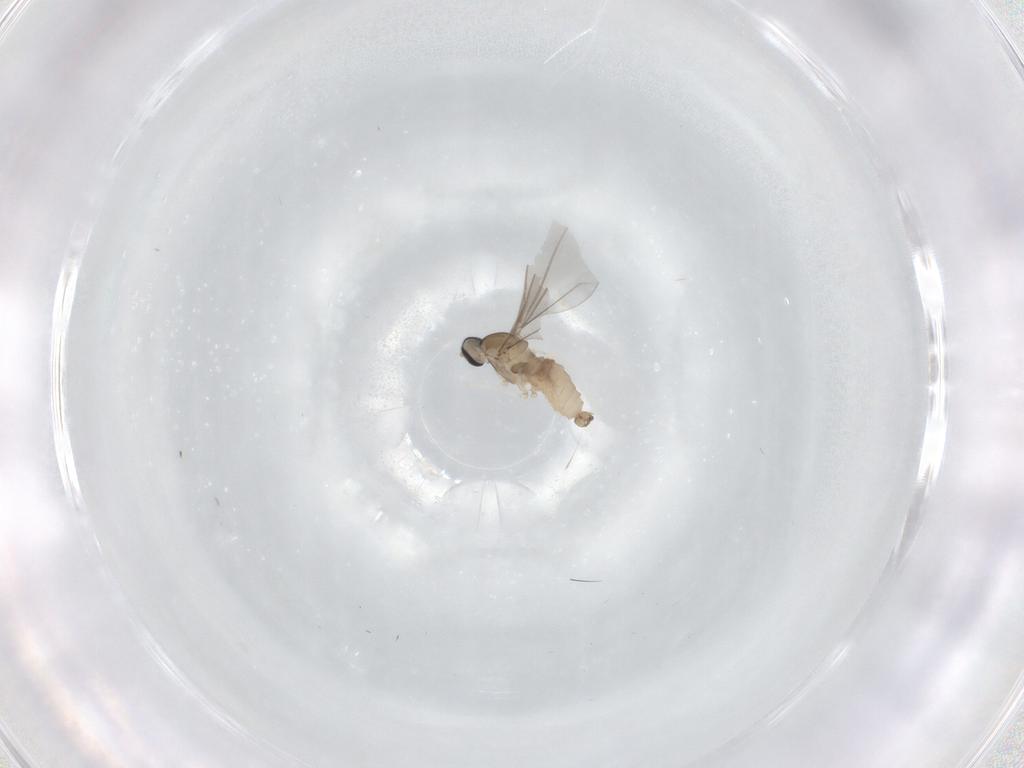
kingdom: Animalia
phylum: Arthropoda
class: Insecta
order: Diptera
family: Cecidomyiidae
